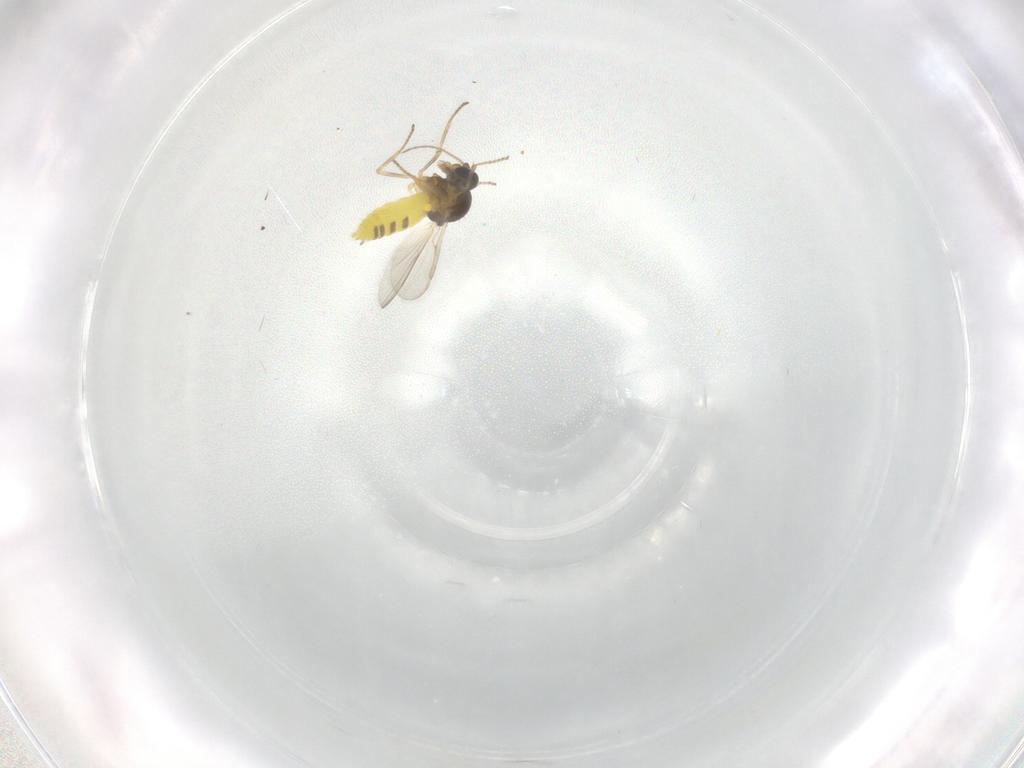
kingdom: Animalia
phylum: Arthropoda
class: Insecta
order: Diptera
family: Ceratopogonidae
